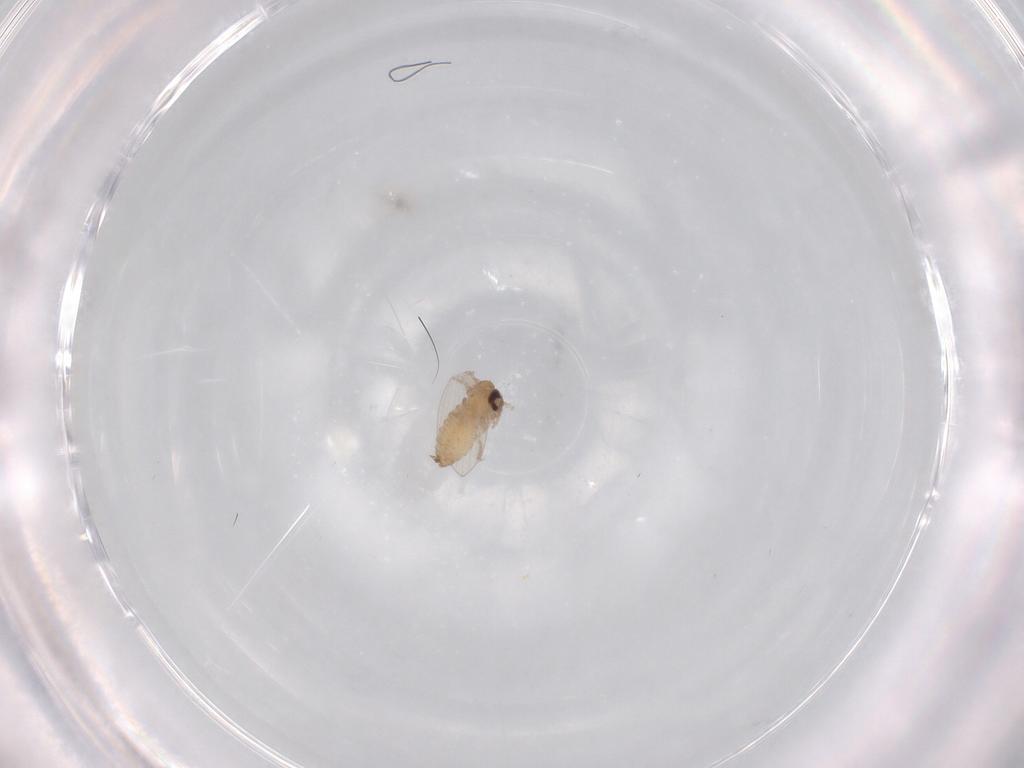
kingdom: Animalia
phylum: Arthropoda
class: Insecta
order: Diptera
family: Psychodidae
